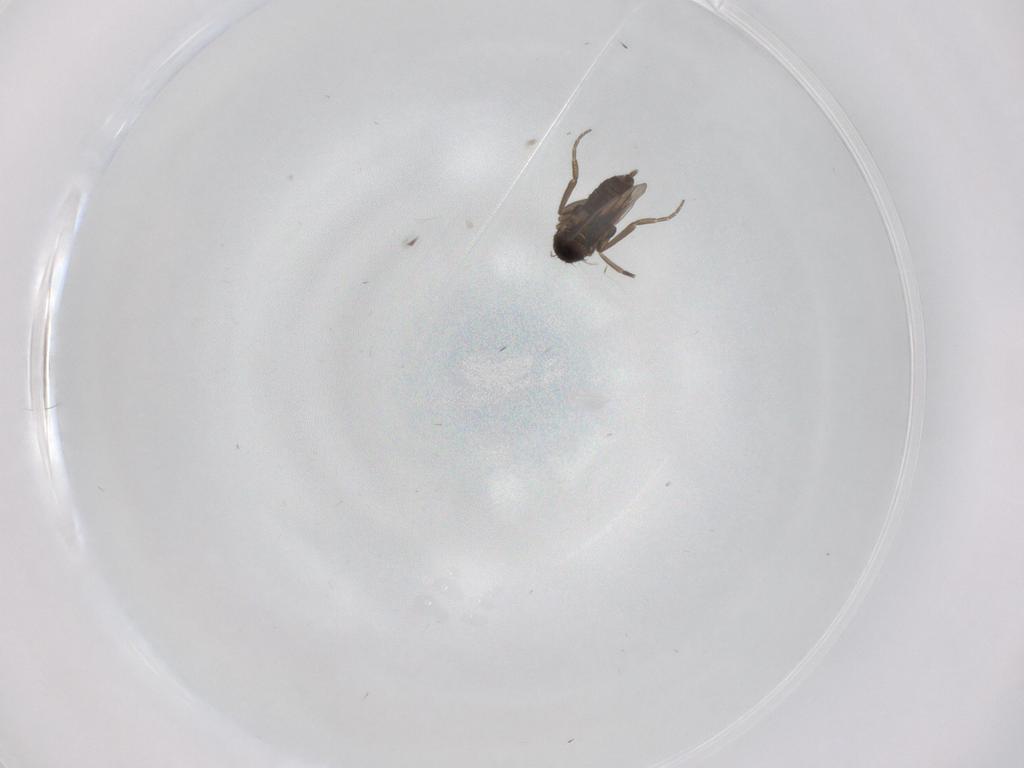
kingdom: Animalia
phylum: Arthropoda
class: Insecta
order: Diptera
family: Phoridae
